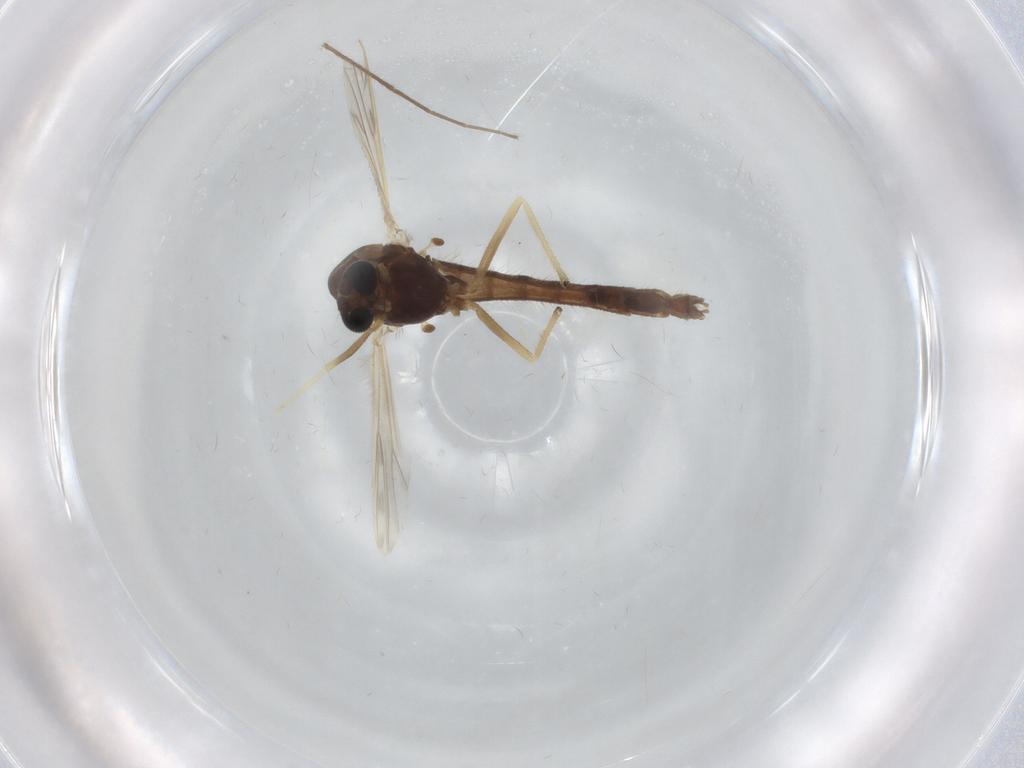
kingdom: Animalia
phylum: Arthropoda
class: Insecta
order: Diptera
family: Chironomidae
